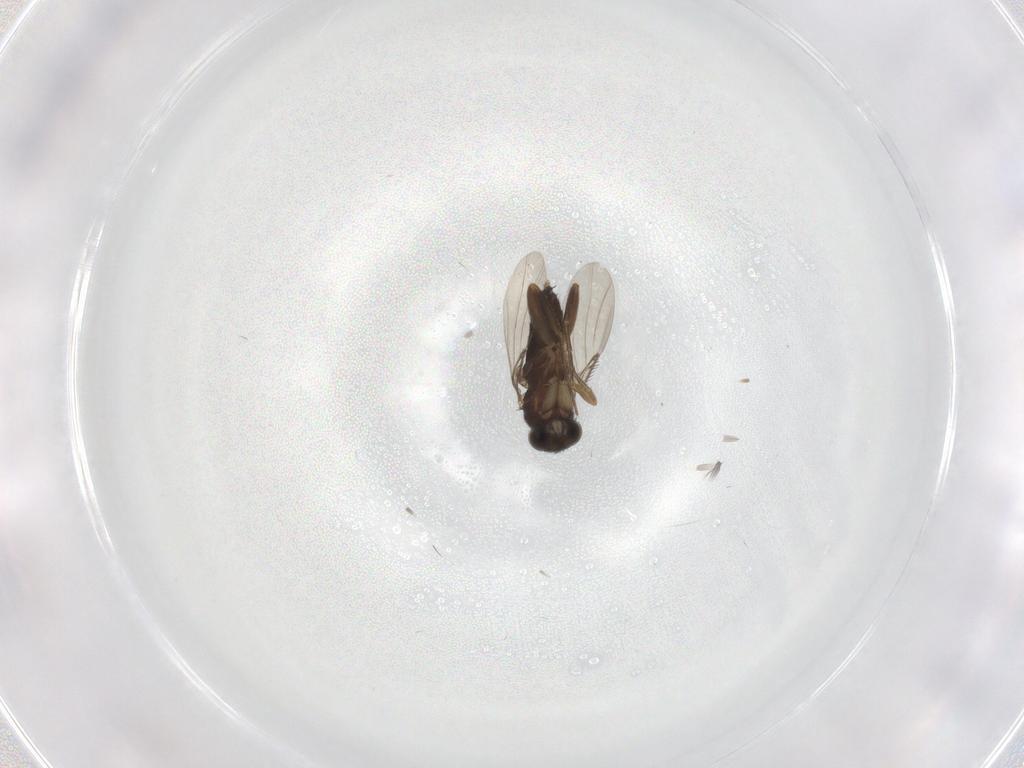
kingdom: Animalia
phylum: Arthropoda
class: Insecta
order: Diptera
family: Phoridae
